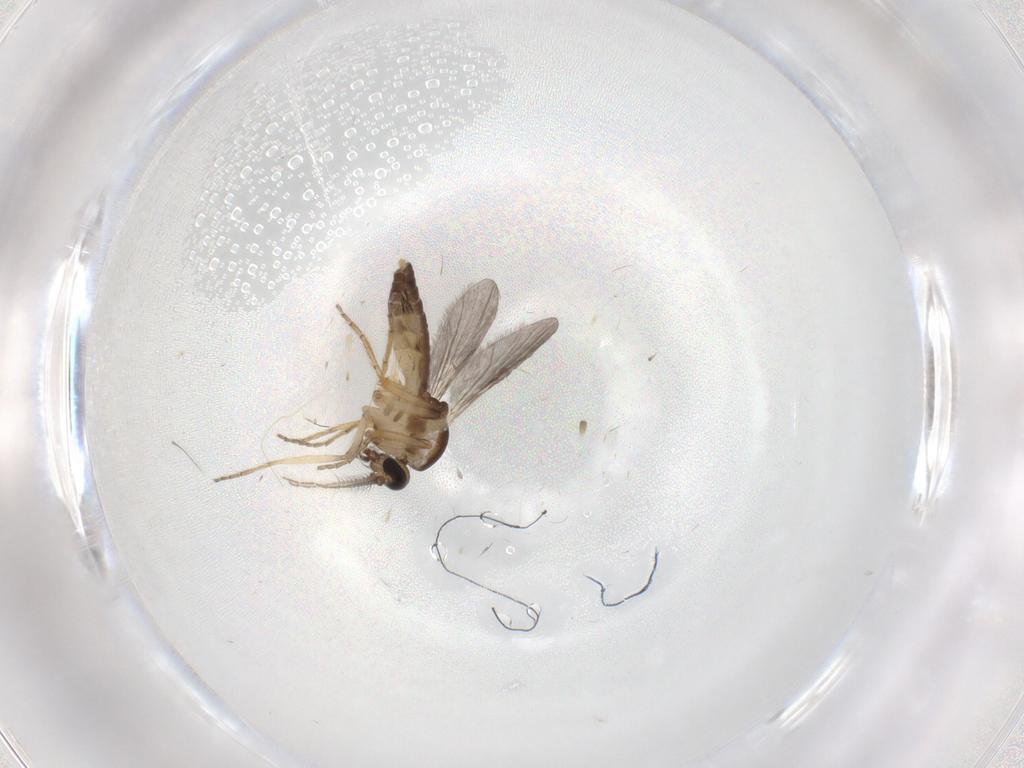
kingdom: Animalia
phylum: Arthropoda
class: Insecta
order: Diptera
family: Ceratopogonidae
